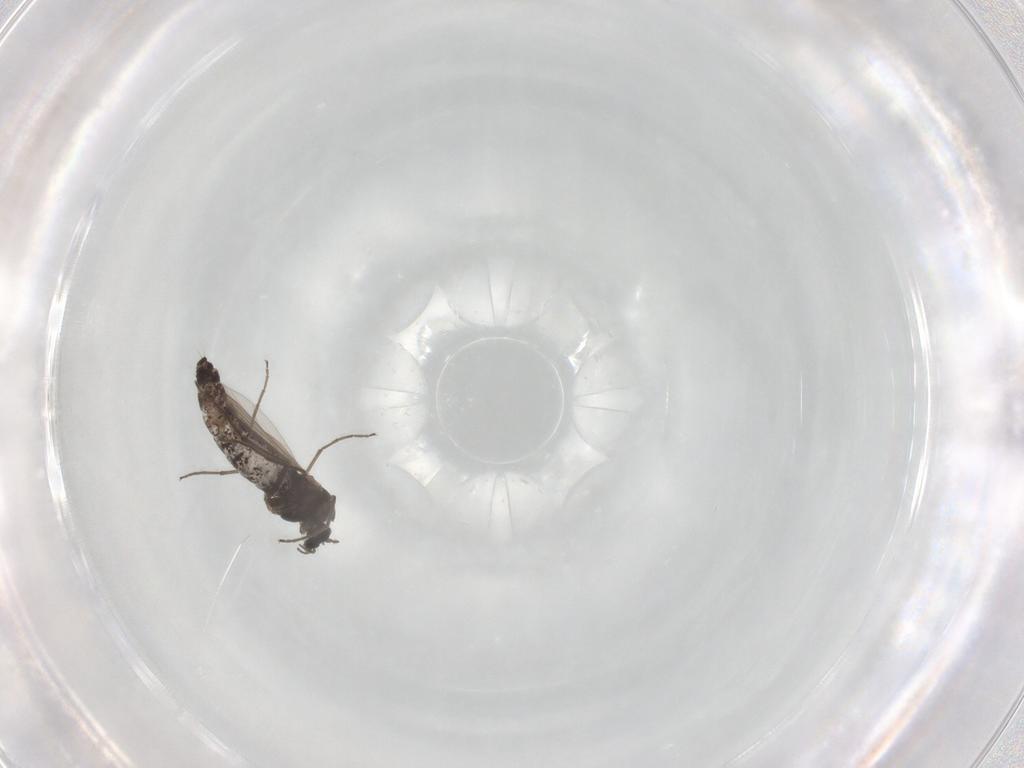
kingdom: Animalia
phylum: Arthropoda
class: Insecta
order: Diptera
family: Chironomidae
